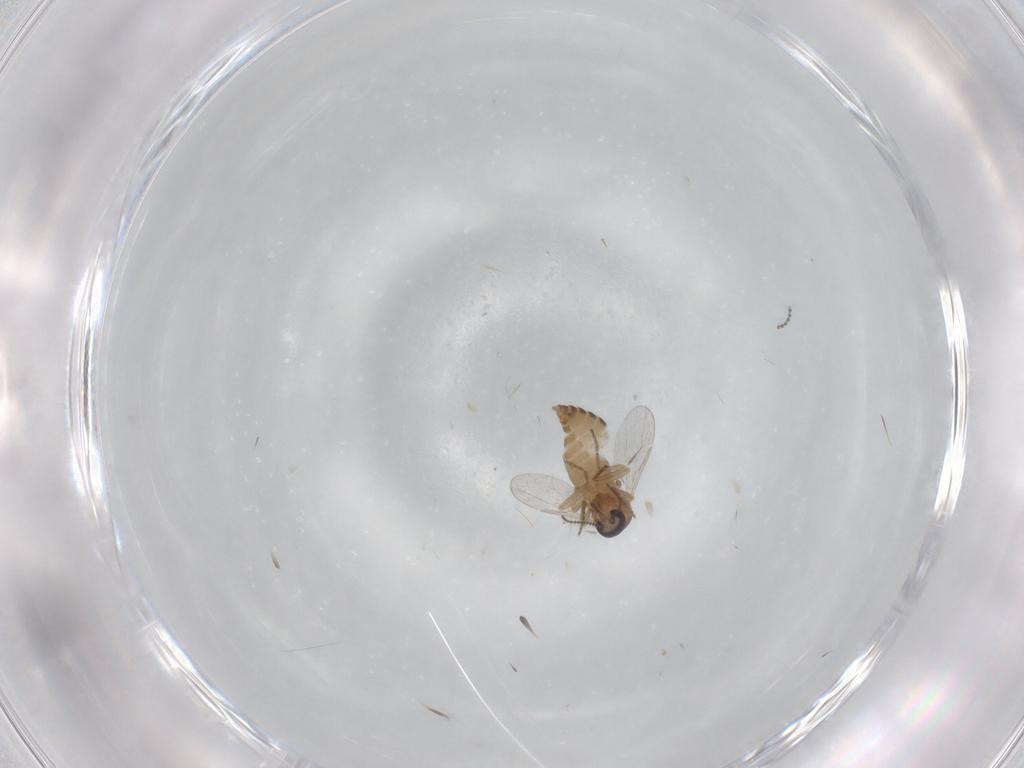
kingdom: Animalia
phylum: Arthropoda
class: Insecta
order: Diptera
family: Ceratopogonidae
